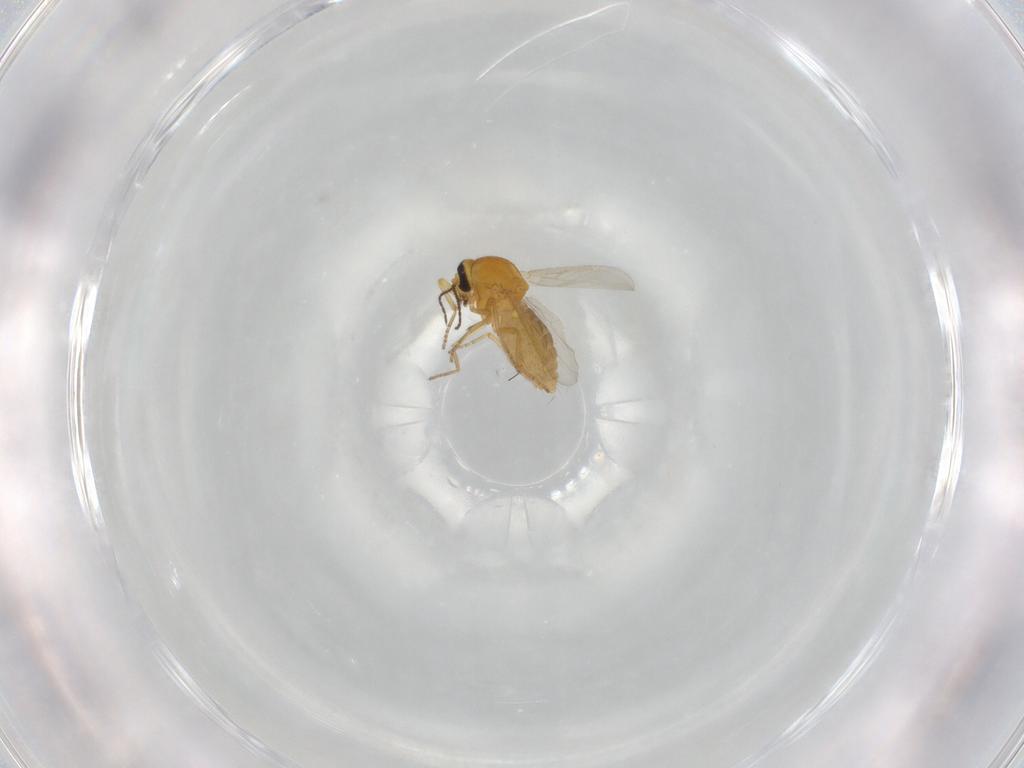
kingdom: Animalia
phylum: Arthropoda
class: Insecta
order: Diptera
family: Ceratopogonidae
